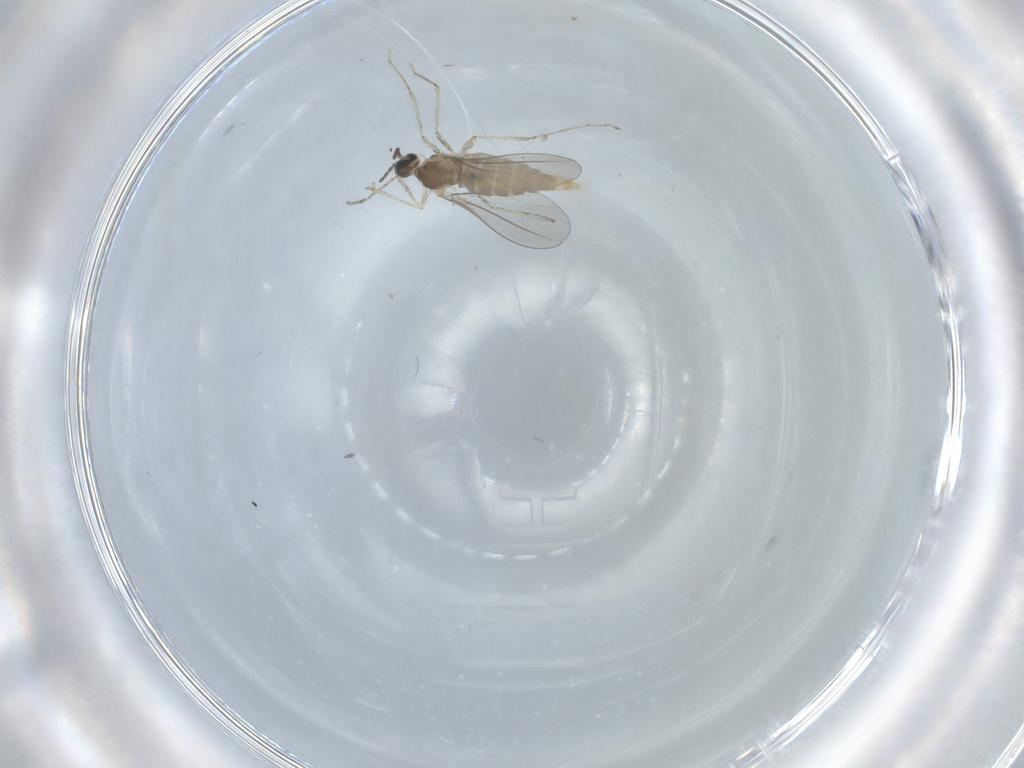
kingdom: Animalia
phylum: Arthropoda
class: Insecta
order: Diptera
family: Phoridae
